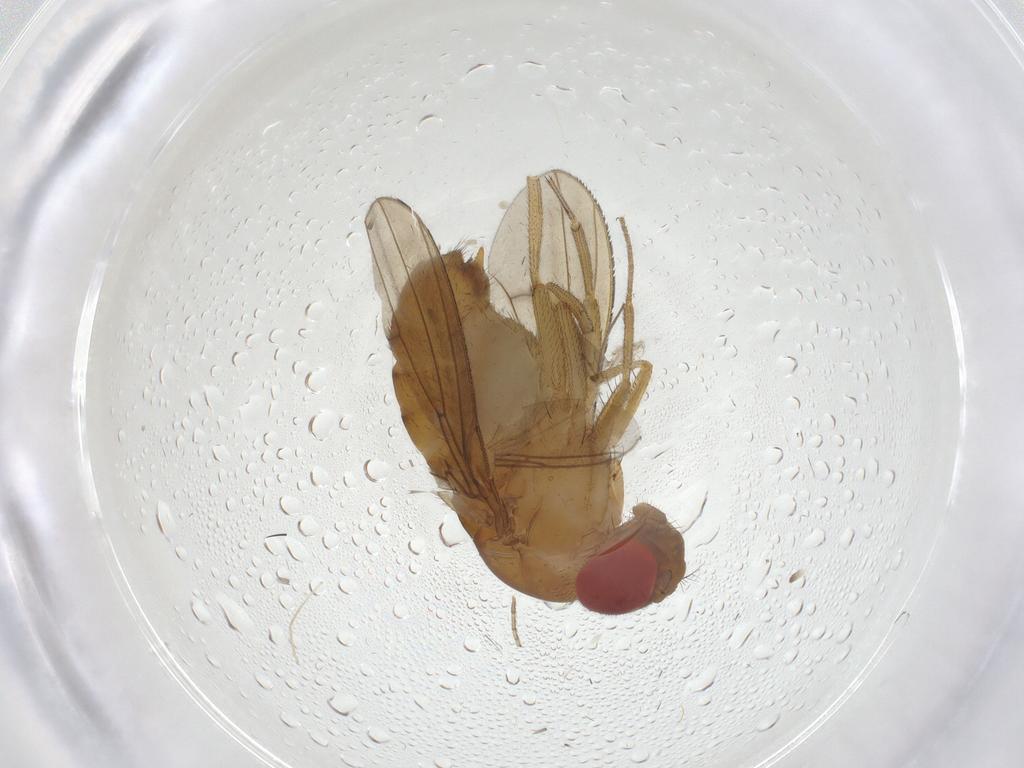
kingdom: Animalia
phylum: Arthropoda
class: Insecta
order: Diptera
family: Drosophilidae
